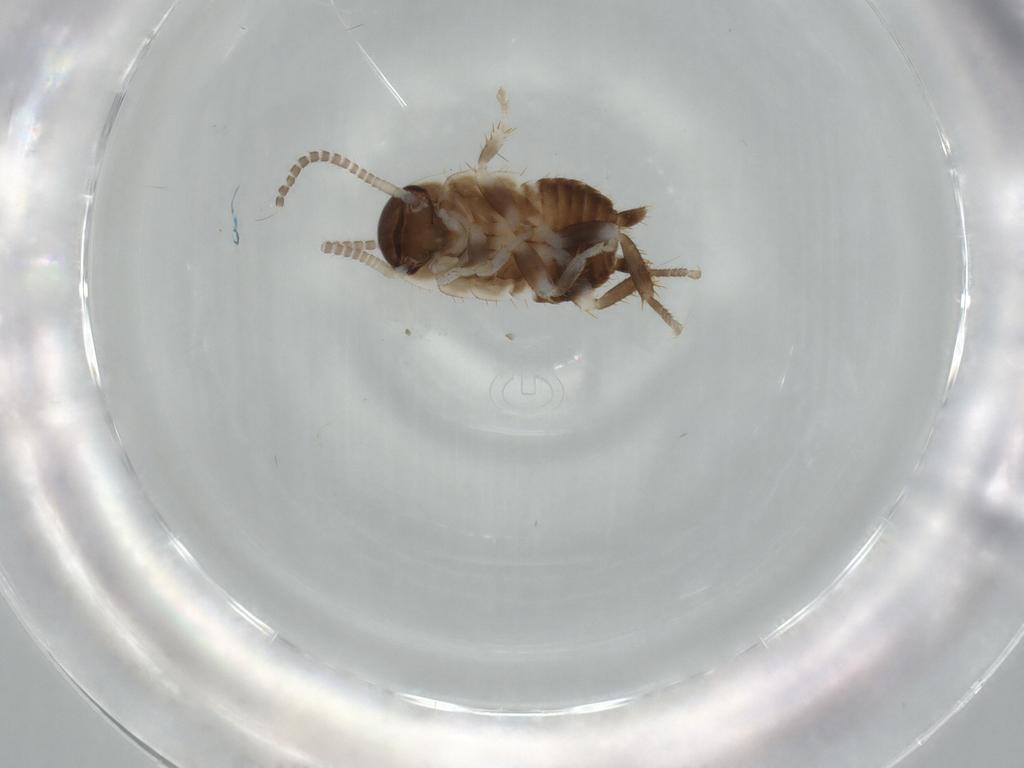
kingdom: Animalia
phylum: Arthropoda
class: Insecta
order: Blattodea
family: Ectobiidae
